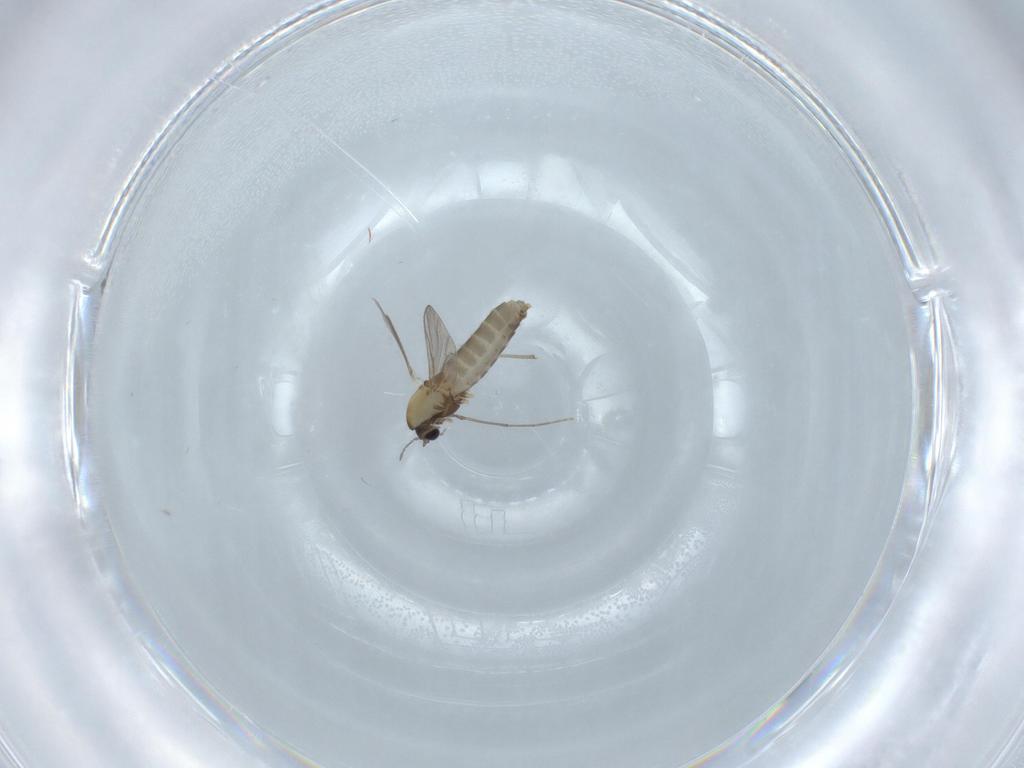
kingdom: Animalia
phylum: Arthropoda
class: Insecta
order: Diptera
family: Chironomidae
